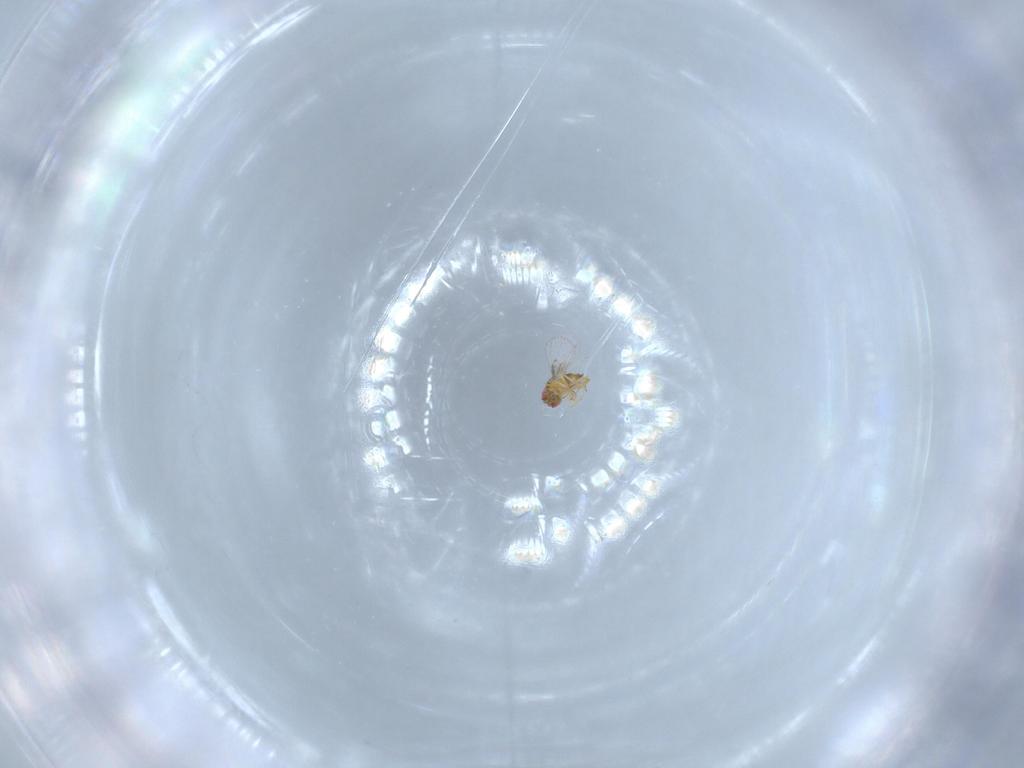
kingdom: Animalia
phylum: Arthropoda
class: Insecta
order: Hymenoptera
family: Trichogrammatidae
